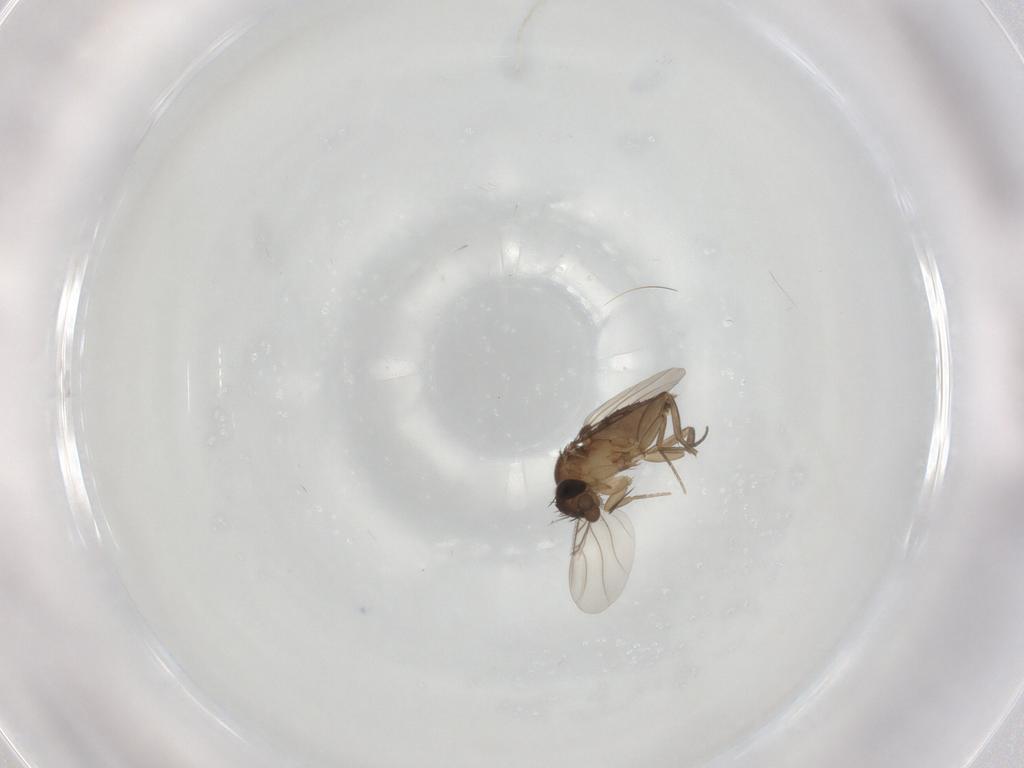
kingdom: Animalia
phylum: Arthropoda
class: Insecta
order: Diptera
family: Phoridae
